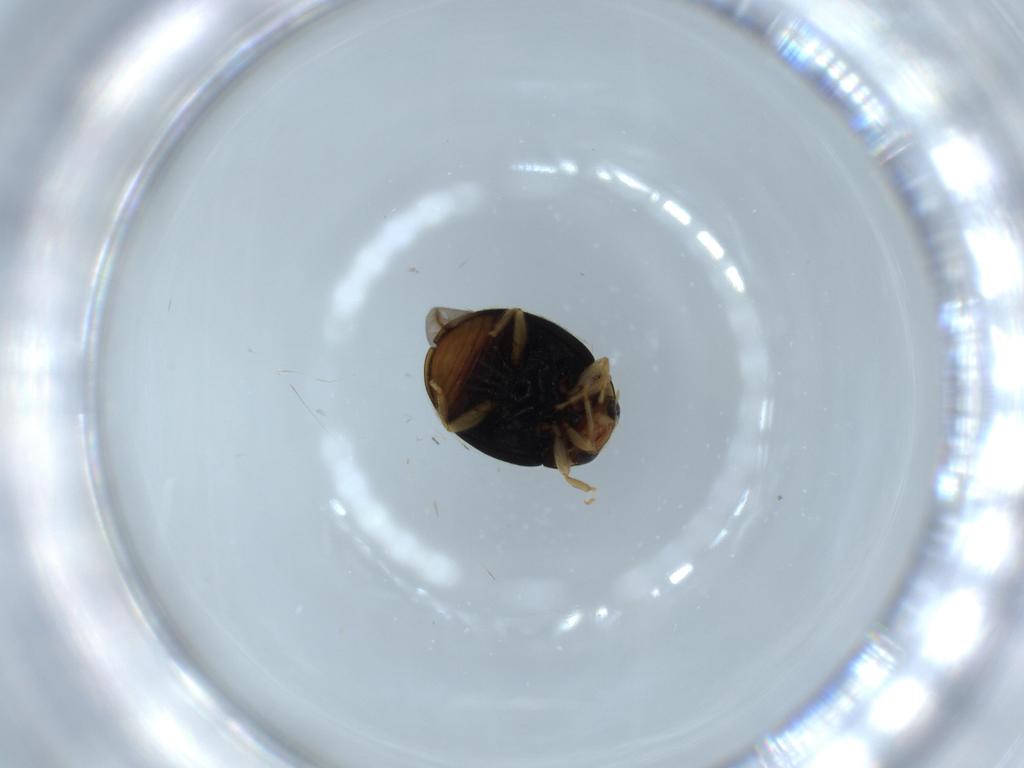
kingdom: Animalia
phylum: Arthropoda
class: Insecta
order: Coleoptera
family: Chrysomelidae
